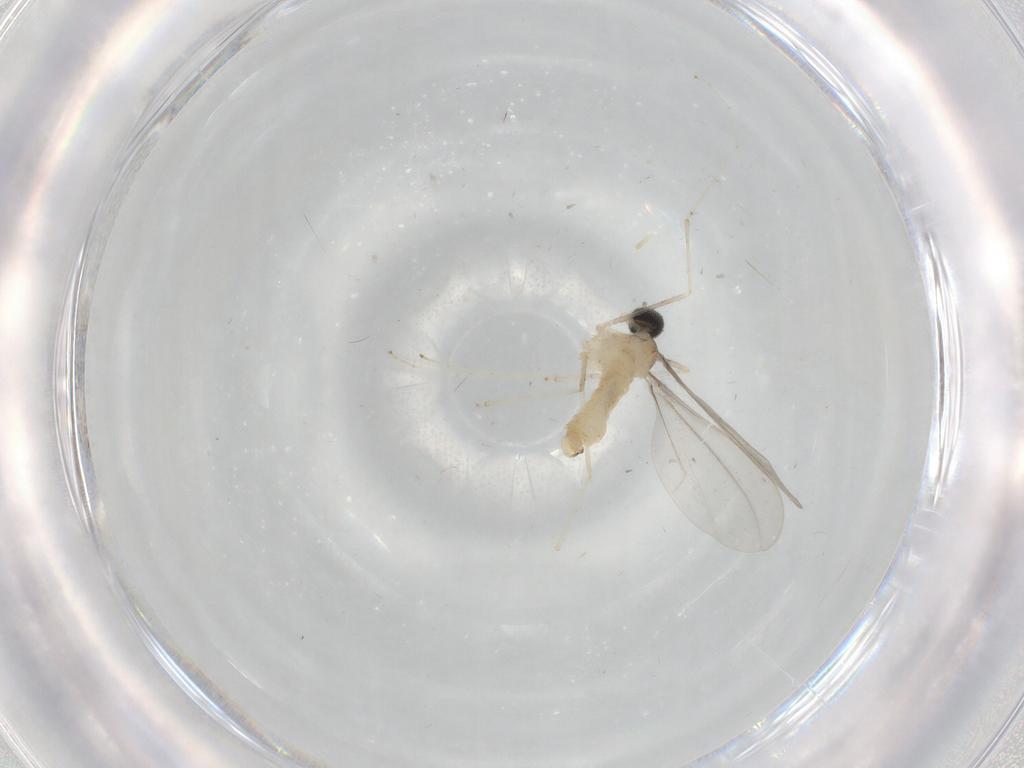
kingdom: Animalia
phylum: Arthropoda
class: Insecta
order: Diptera
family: Cecidomyiidae
